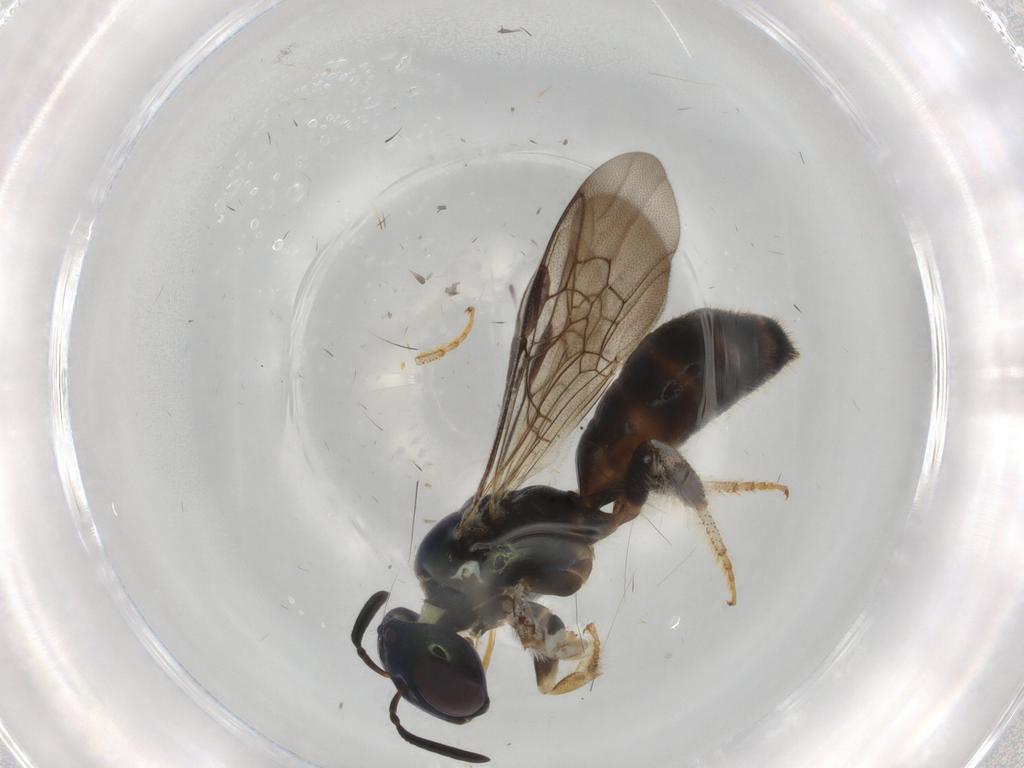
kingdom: Animalia
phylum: Arthropoda
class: Insecta
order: Hymenoptera
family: Apidae
